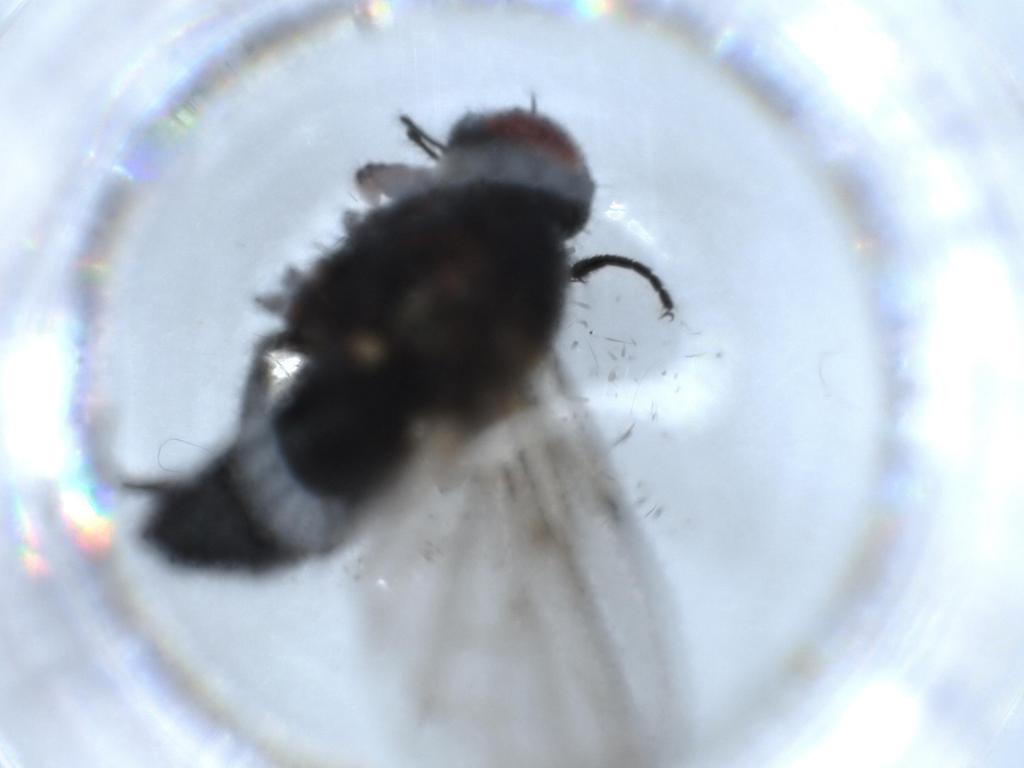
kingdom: Animalia
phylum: Arthropoda
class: Insecta
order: Diptera
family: Muscidae
